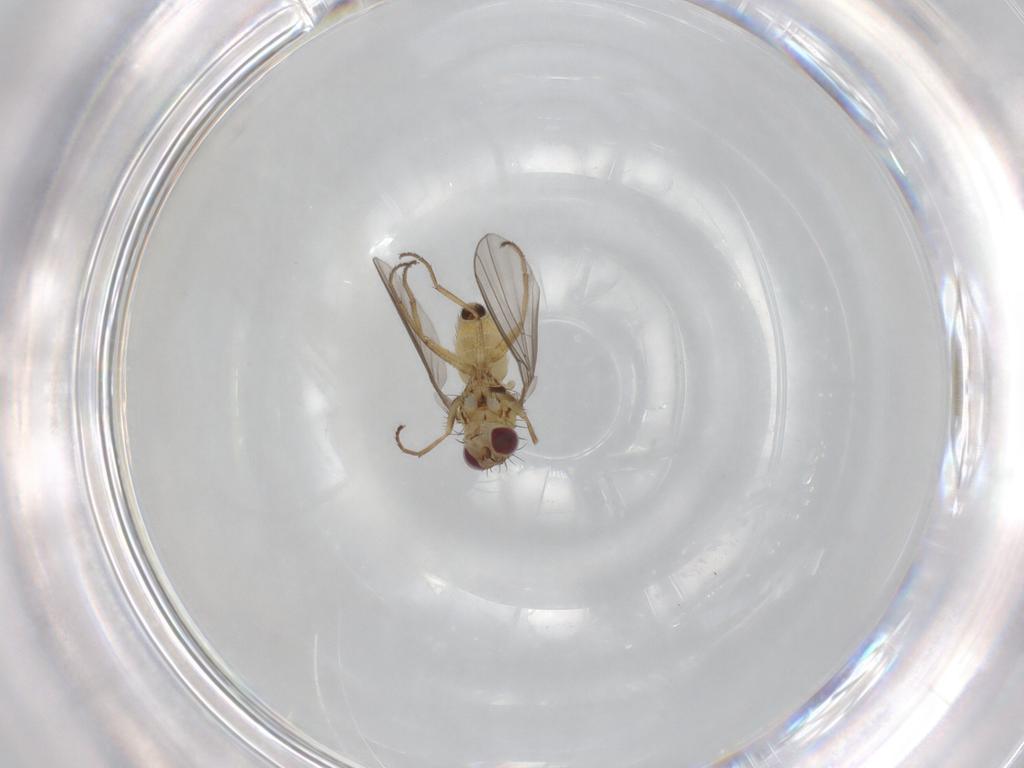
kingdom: Animalia
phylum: Arthropoda
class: Insecta
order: Diptera
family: Agromyzidae
